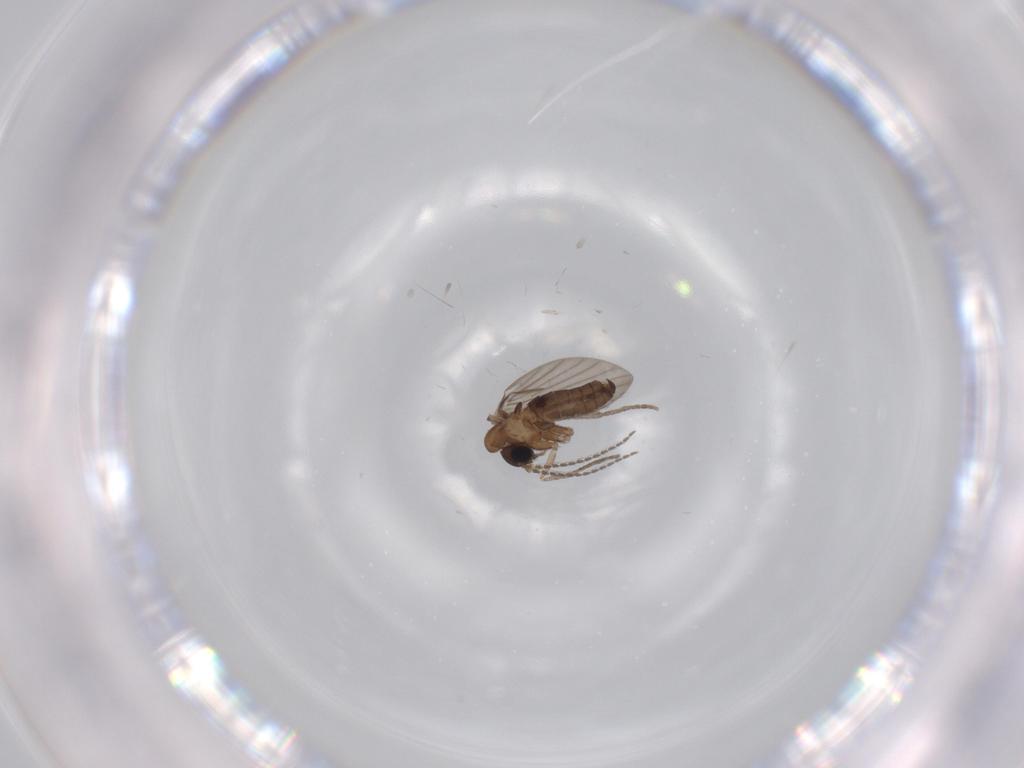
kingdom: Animalia
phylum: Arthropoda
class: Insecta
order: Diptera
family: Psychodidae
